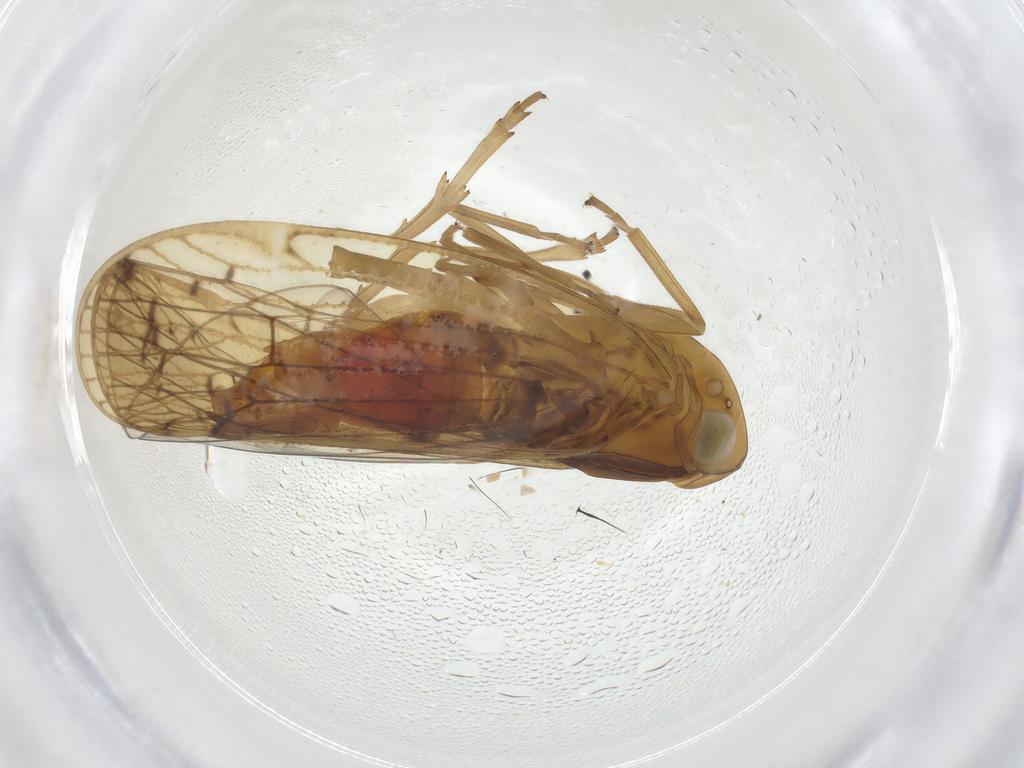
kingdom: Animalia
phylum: Arthropoda
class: Insecta
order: Hemiptera
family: Cixiidae
